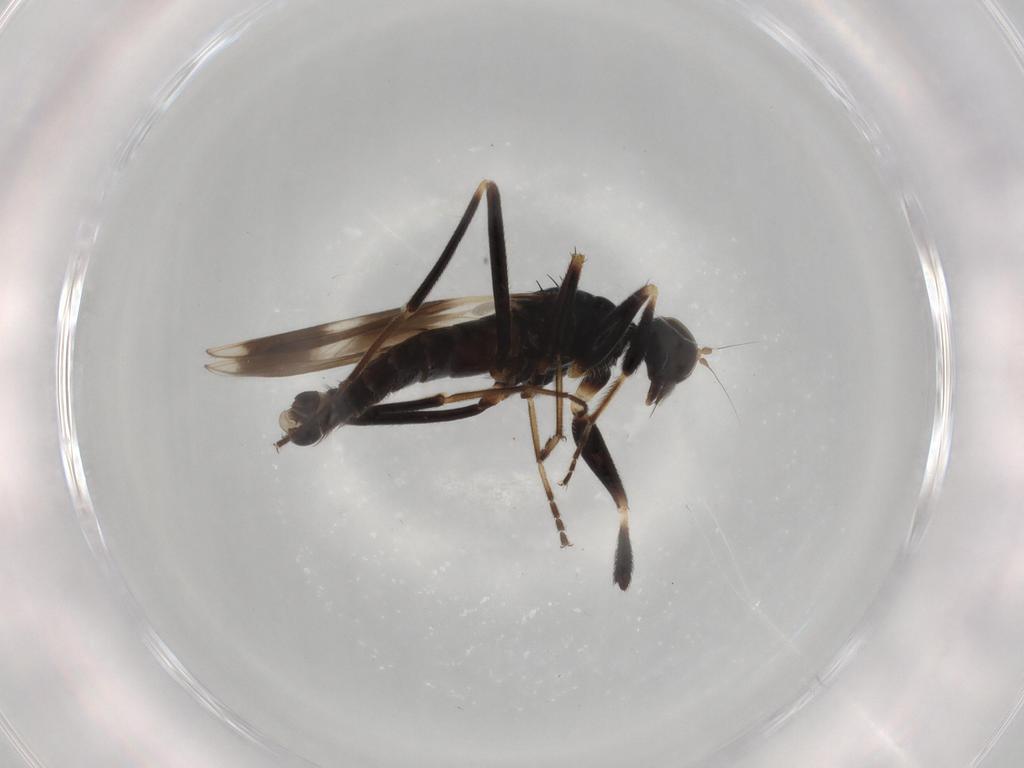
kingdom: Animalia
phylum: Arthropoda
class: Insecta
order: Diptera
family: Hybotidae
